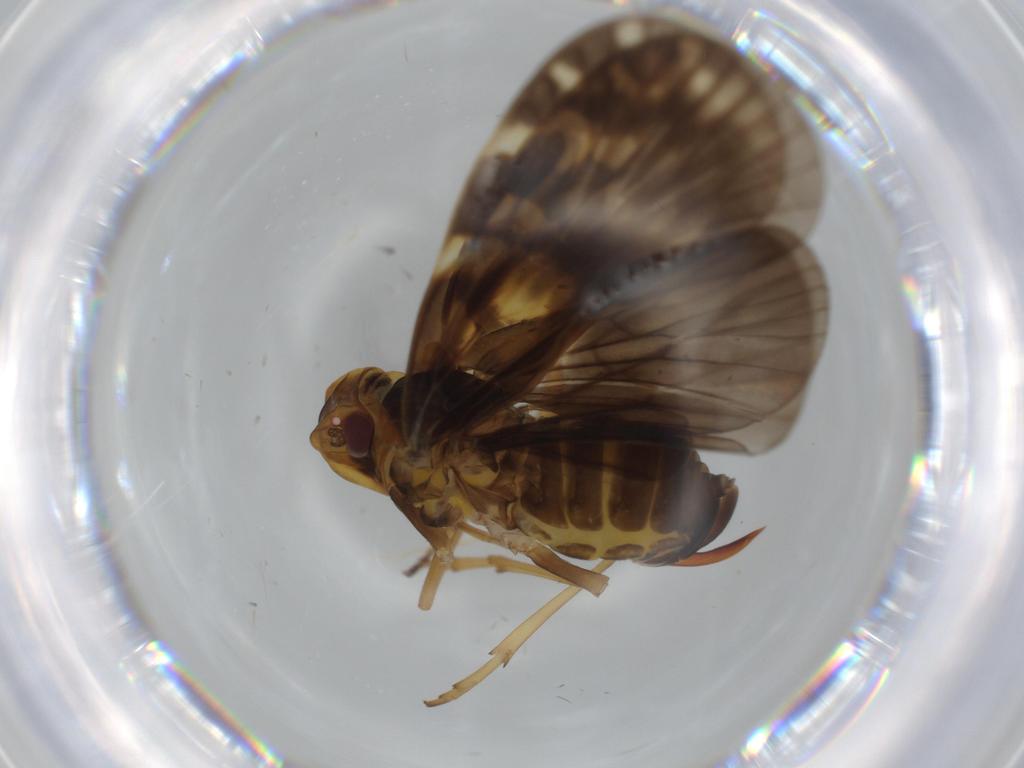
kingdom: Animalia
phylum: Arthropoda
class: Insecta
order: Hemiptera
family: Cixiidae
